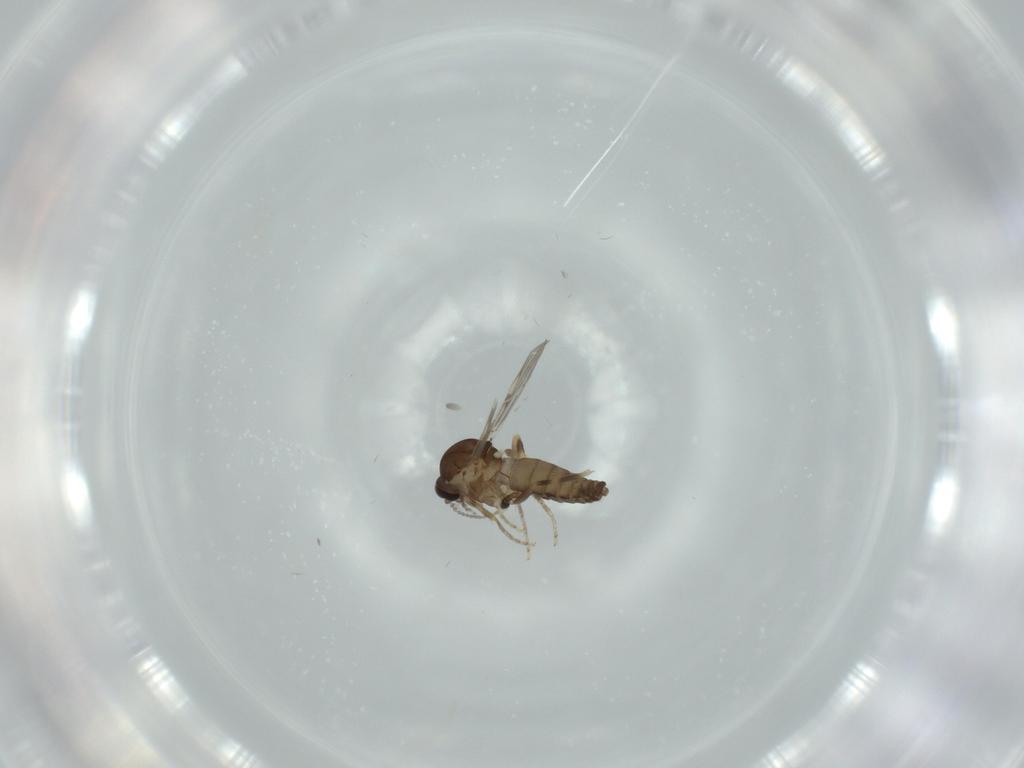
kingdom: Animalia
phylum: Arthropoda
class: Insecta
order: Diptera
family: Ceratopogonidae
